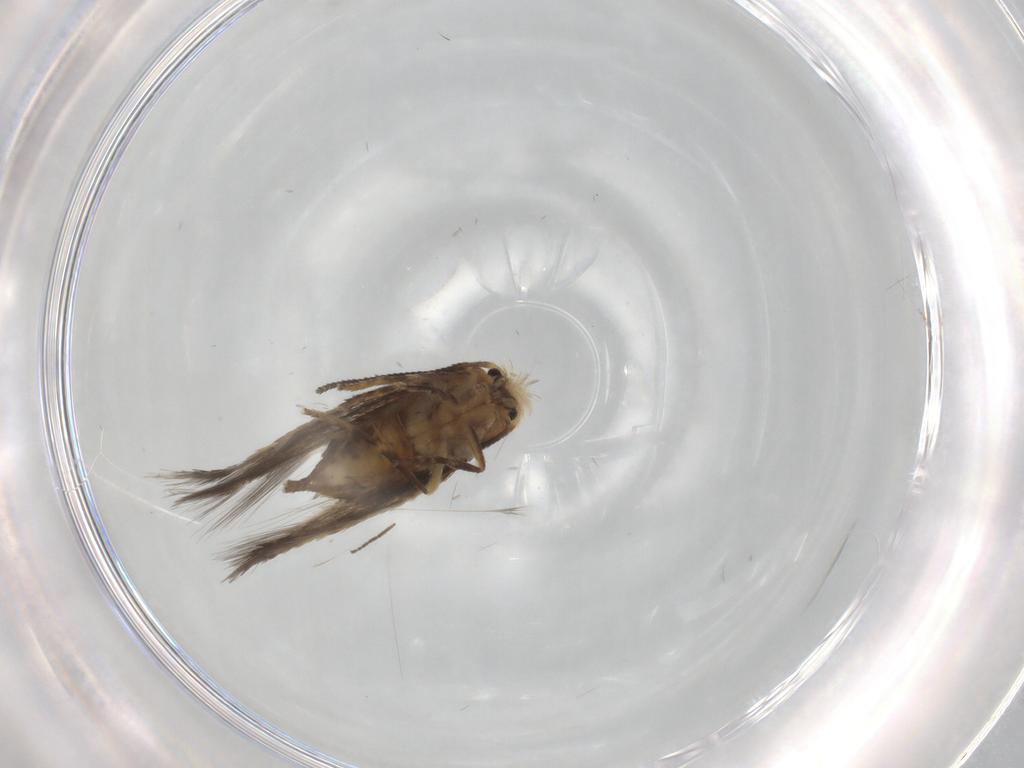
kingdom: Animalia
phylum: Arthropoda
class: Insecta
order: Lepidoptera
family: Nepticulidae
